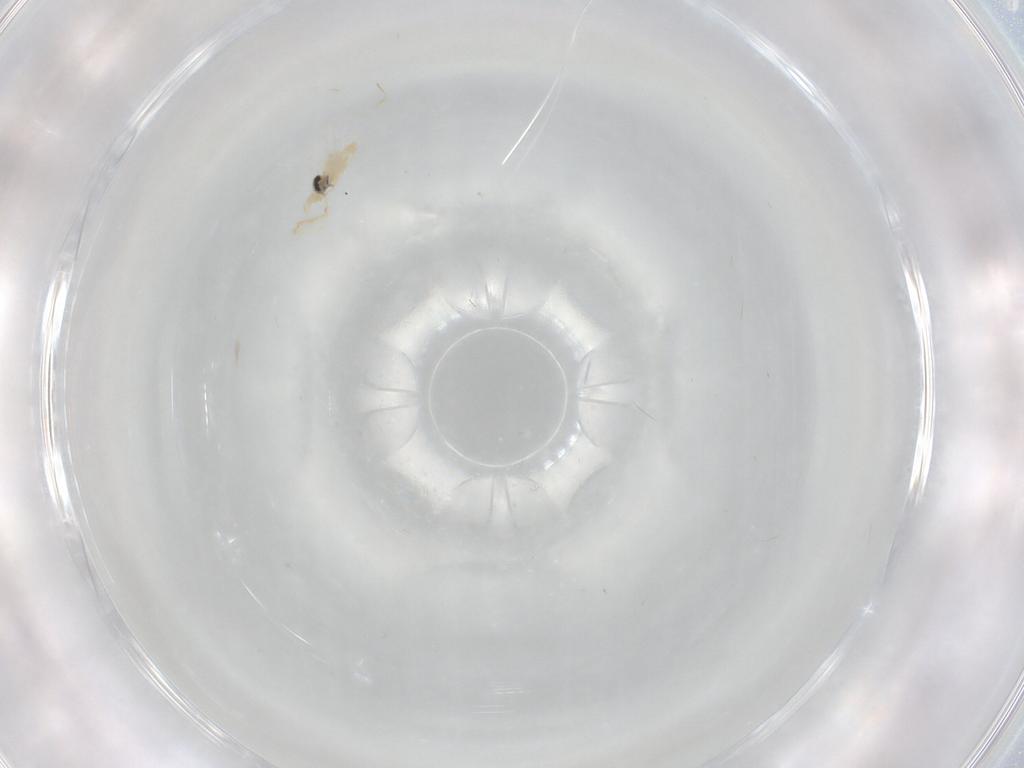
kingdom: Animalia
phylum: Arthropoda
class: Insecta
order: Diptera
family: Cecidomyiidae
